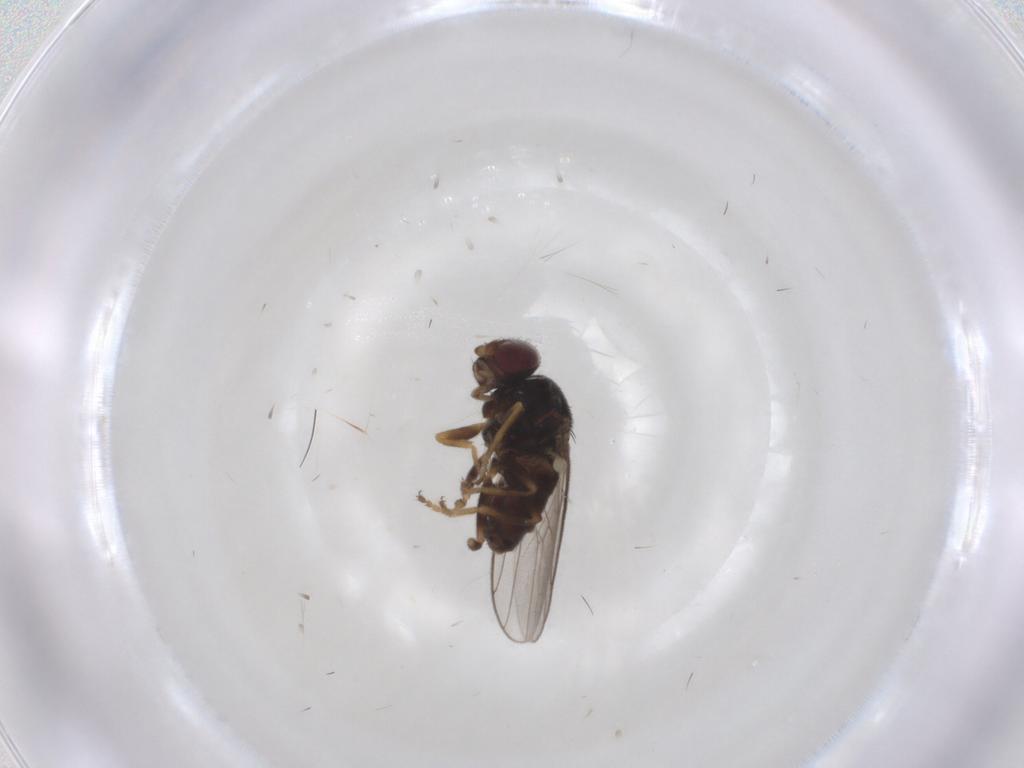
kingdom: Animalia
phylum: Arthropoda
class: Insecta
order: Diptera
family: Chloropidae
